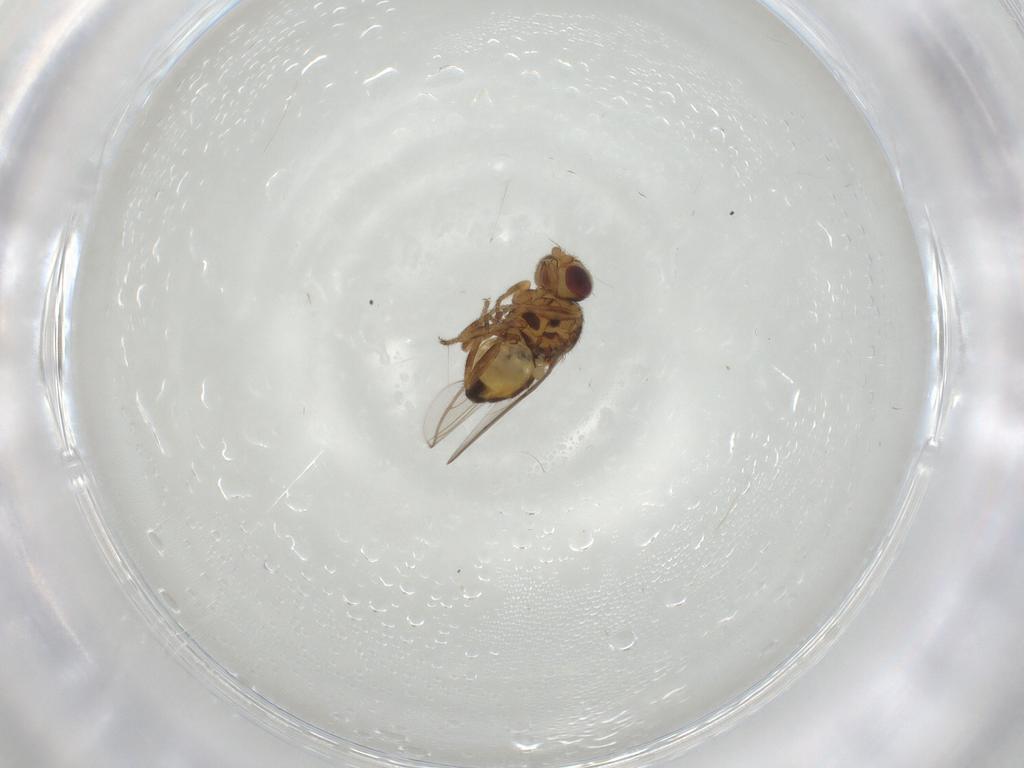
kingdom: Animalia
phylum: Arthropoda
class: Insecta
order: Diptera
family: Chloropidae
